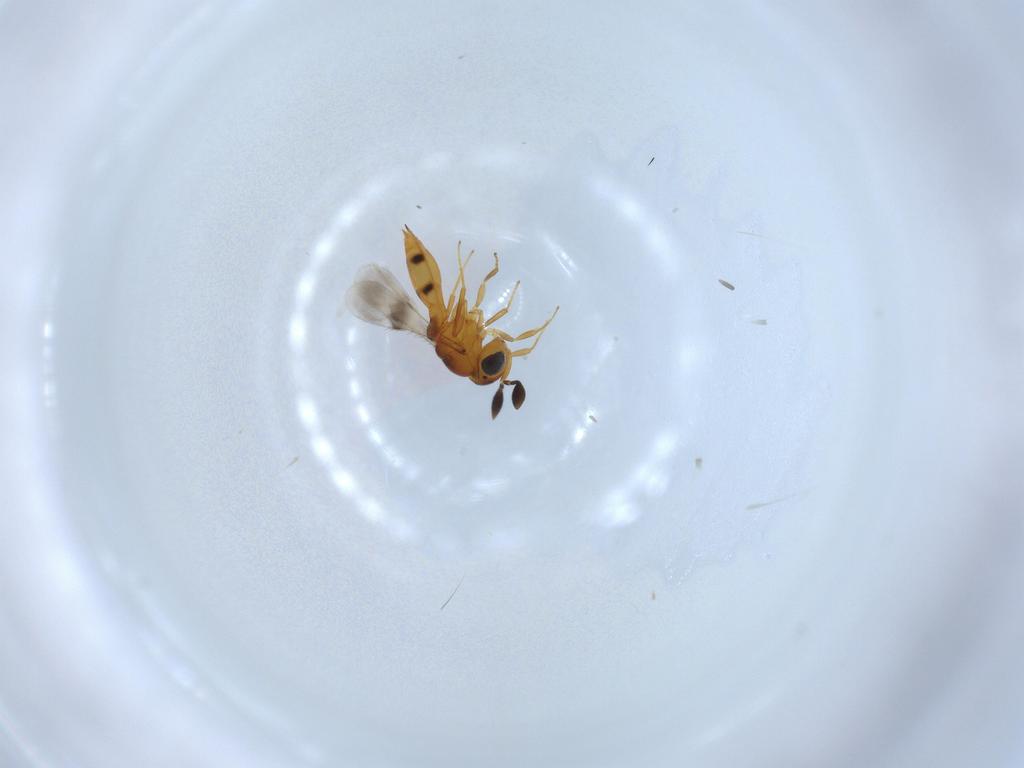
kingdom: Animalia
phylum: Arthropoda
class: Insecta
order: Hymenoptera
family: Scelionidae
